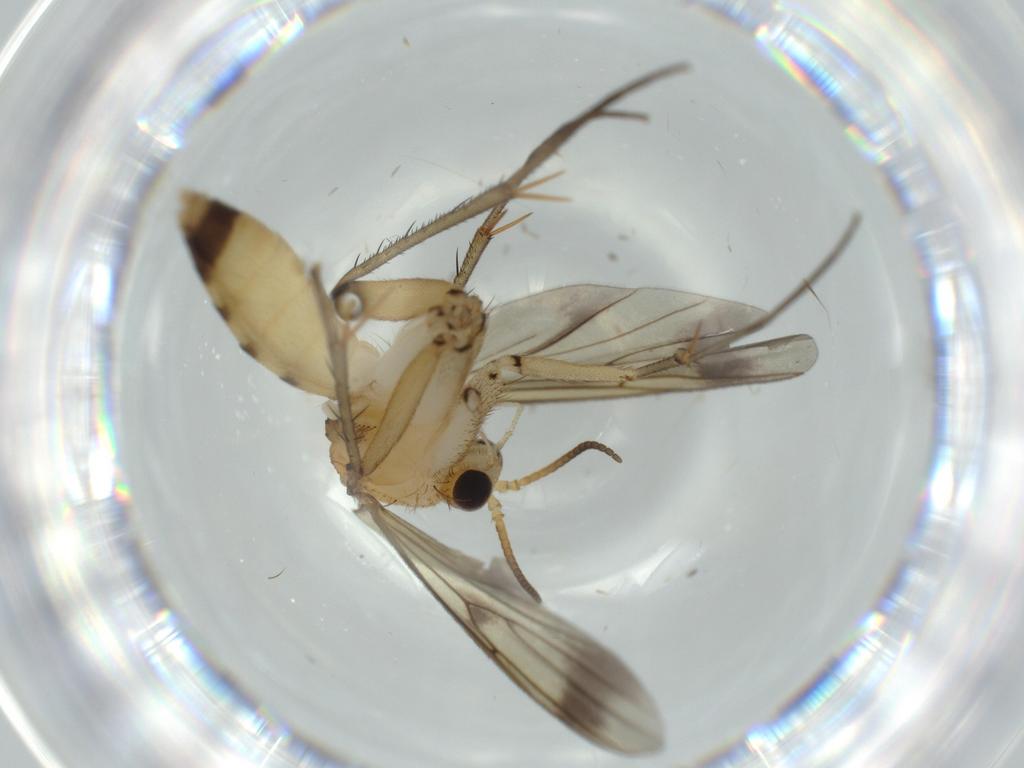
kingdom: Animalia
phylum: Arthropoda
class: Insecta
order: Diptera
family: Mycetophilidae
